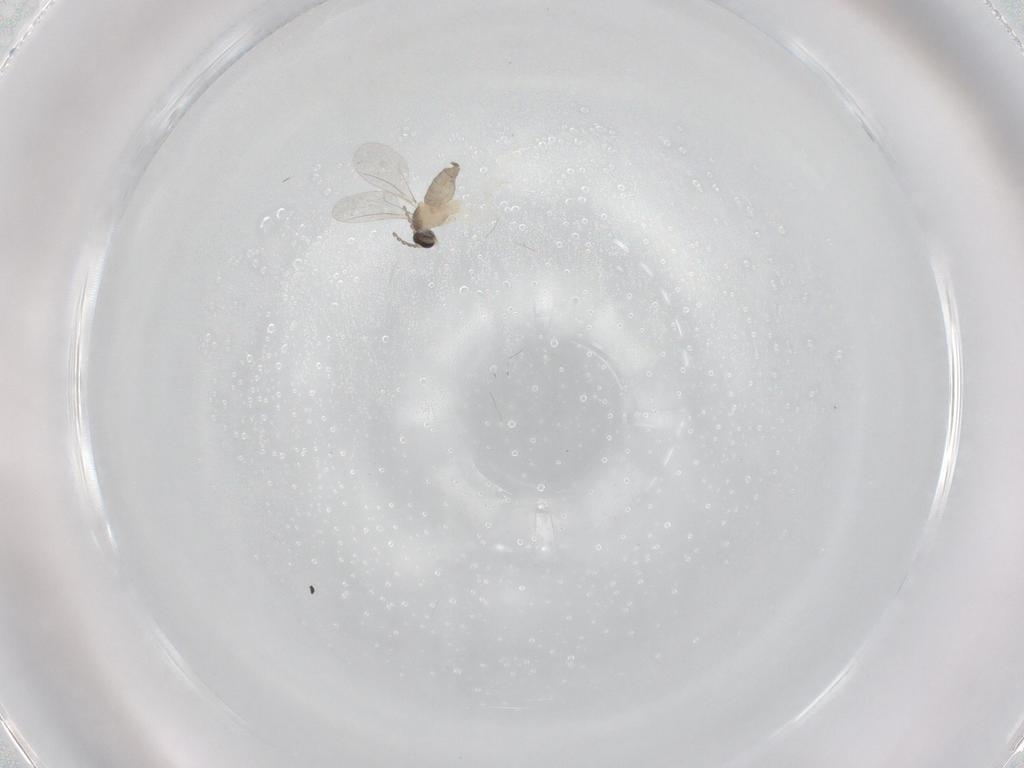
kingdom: Animalia
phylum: Arthropoda
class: Insecta
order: Diptera
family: Cecidomyiidae
